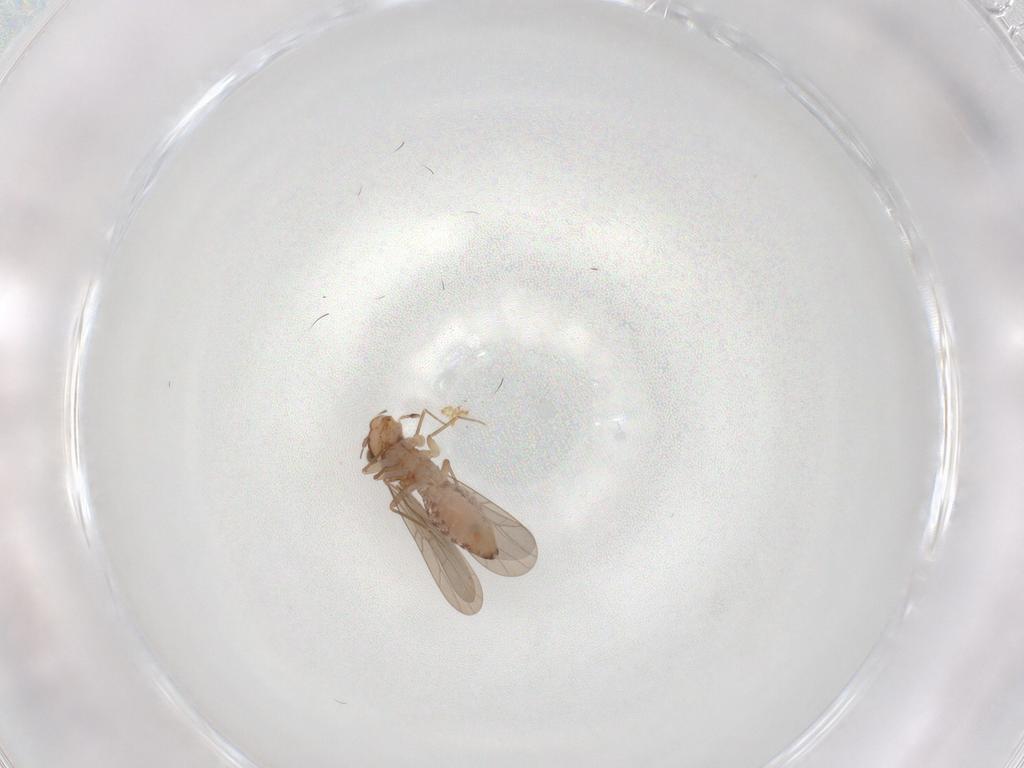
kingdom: Animalia
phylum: Arthropoda
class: Insecta
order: Psocodea
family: Lepidopsocidae
